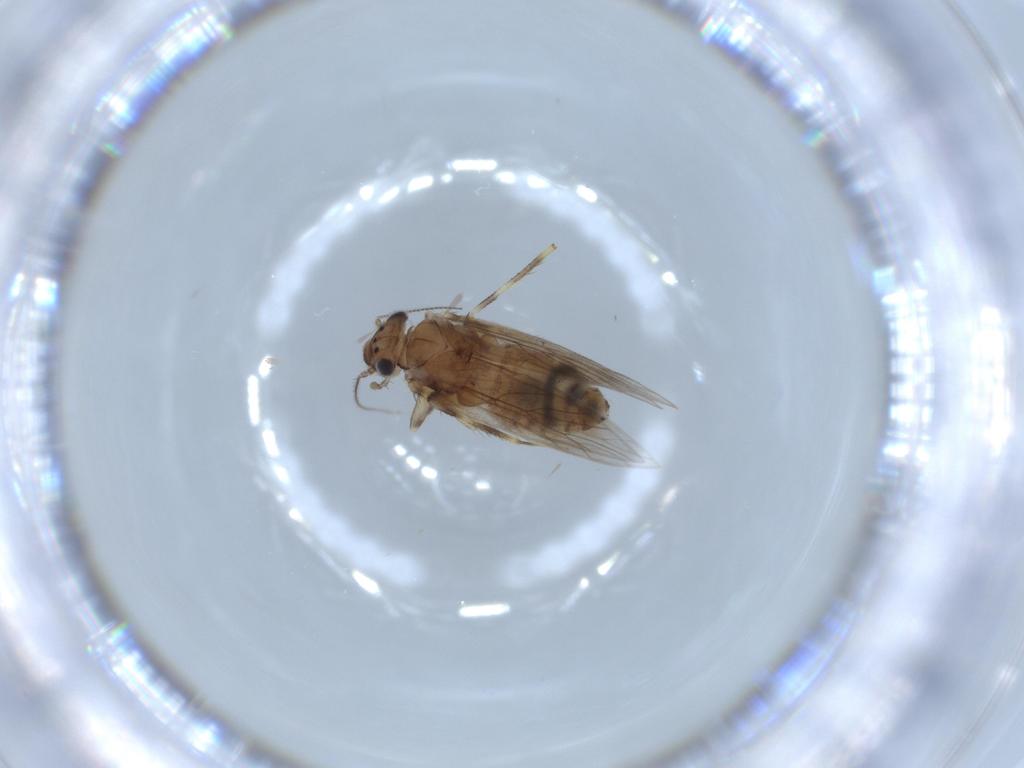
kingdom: Animalia
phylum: Arthropoda
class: Insecta
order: Psocodea
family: Lepidopsocidae
